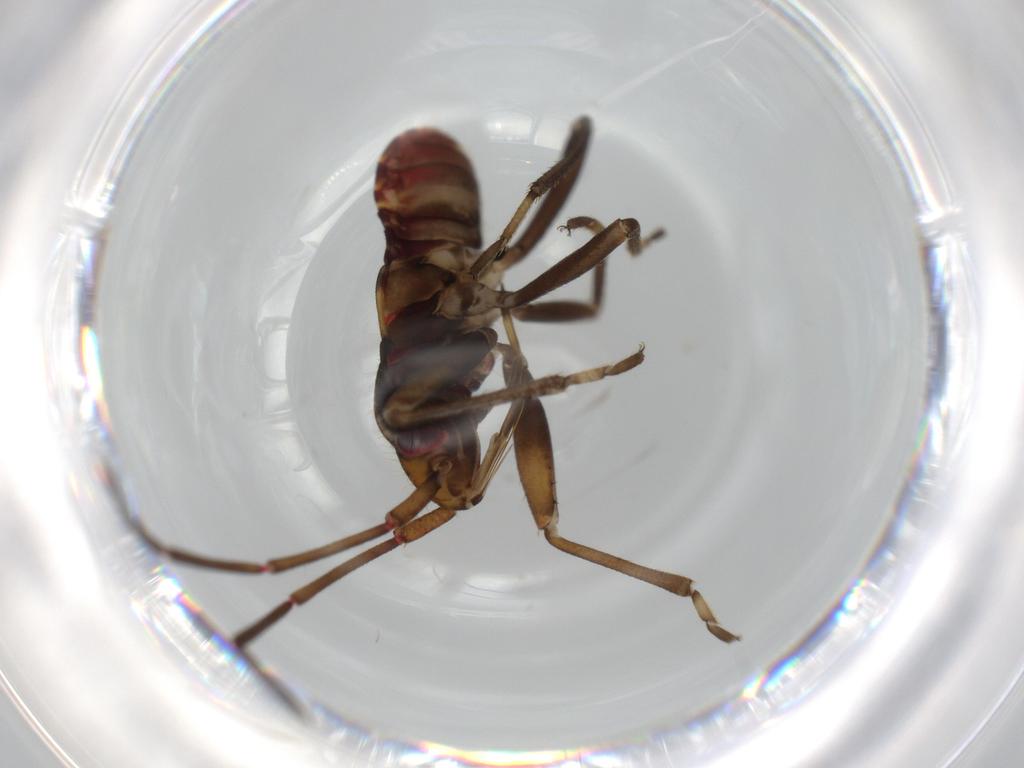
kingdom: Animalia
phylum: Arthropoda
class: Insecta
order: Hemiptera
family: Rhyparochromidae
